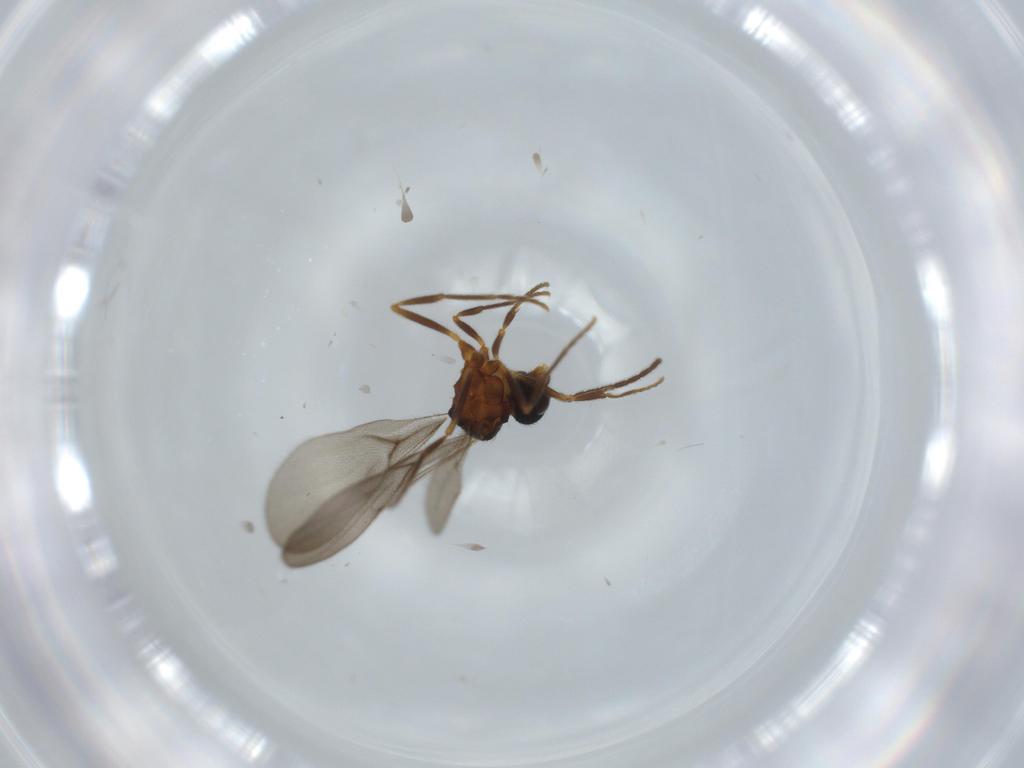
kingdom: Animalia
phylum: Arthropoda
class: Insecta
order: Hymenoptera
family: Formicidae
